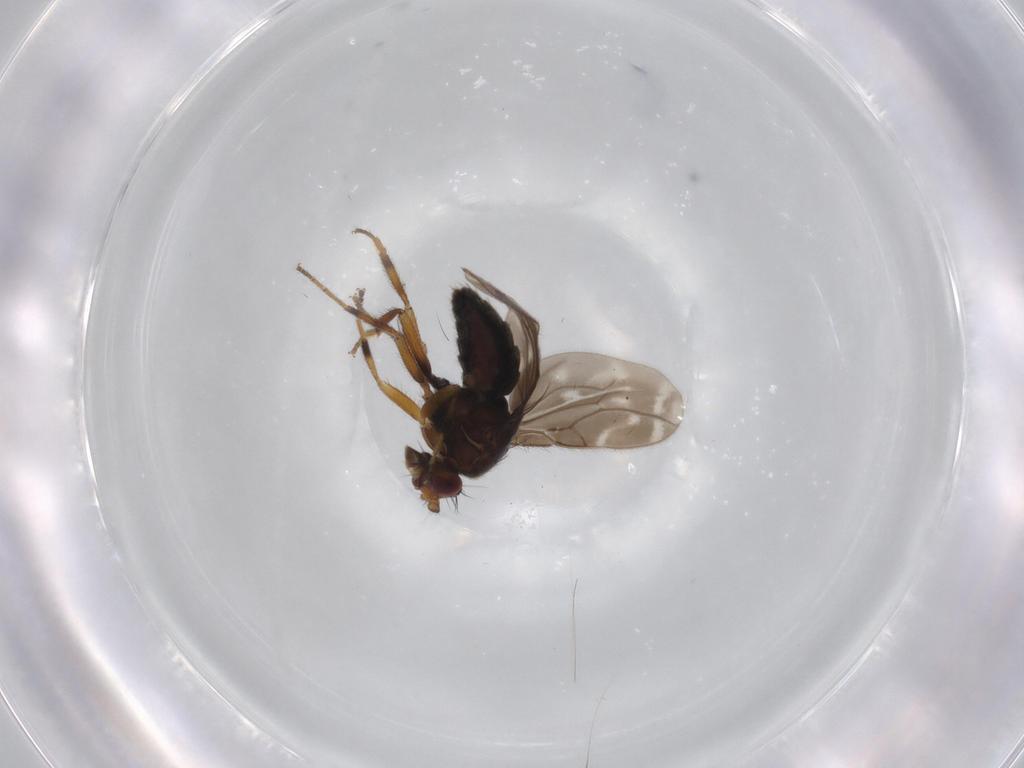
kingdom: Animalia
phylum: Arthropoda
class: Insecta
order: Diptera
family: Sphaeroceridae
